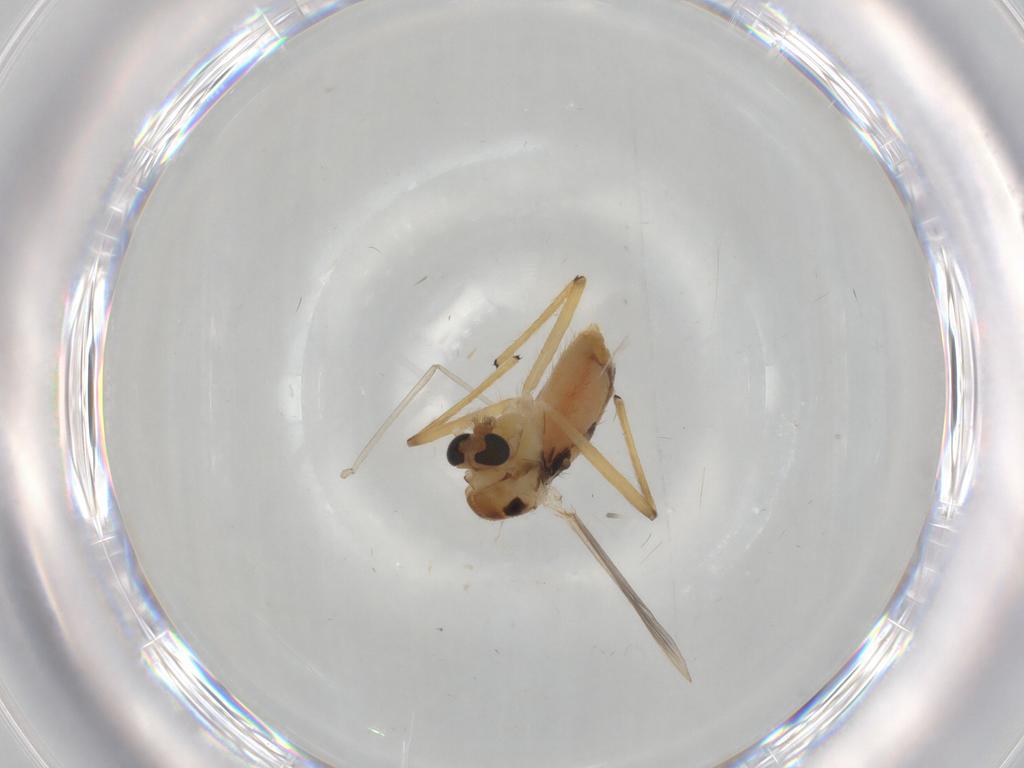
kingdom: Animalia
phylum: Arthropoda
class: Insecta
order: Diptera
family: Chironomidae
